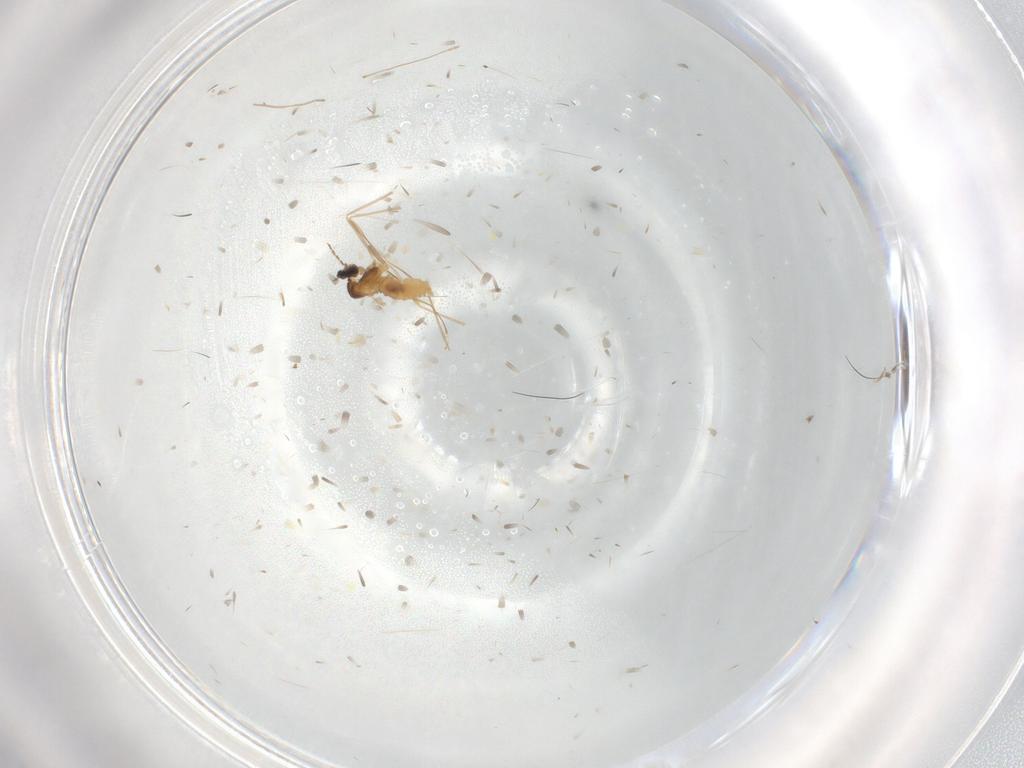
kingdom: Animalia
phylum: Arthropoda
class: Insecta
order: Diptera
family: Cecidomyiidae
